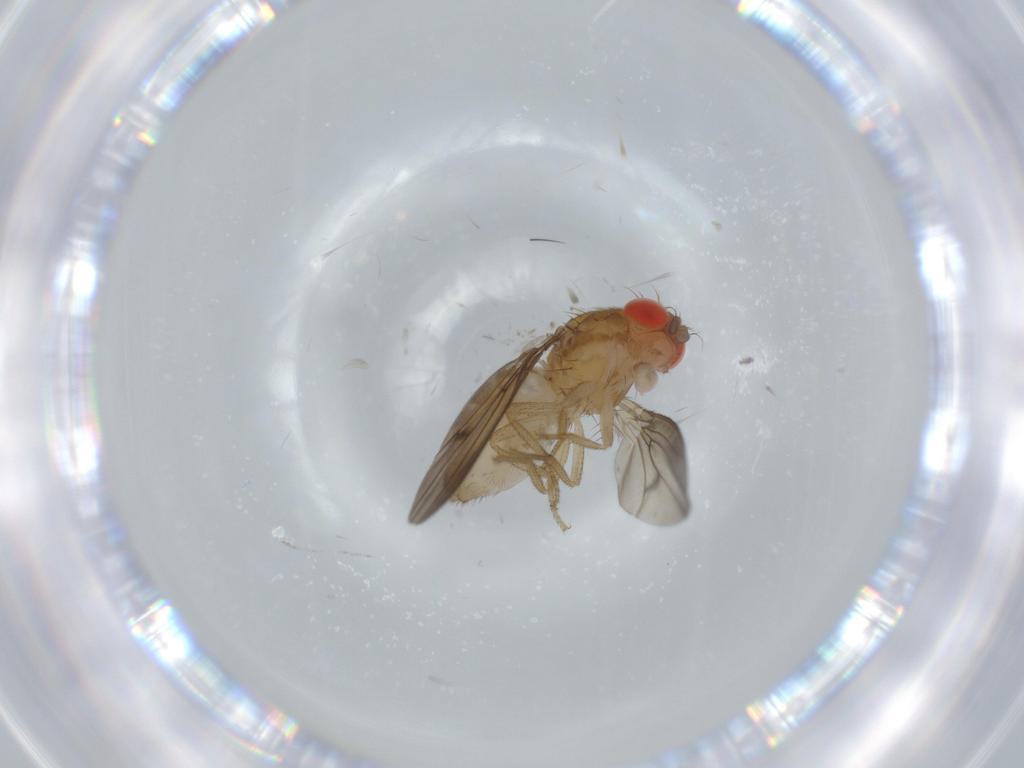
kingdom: Animalia
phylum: Arthropoda
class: Insecta
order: Diptera
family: Drosophilidae
